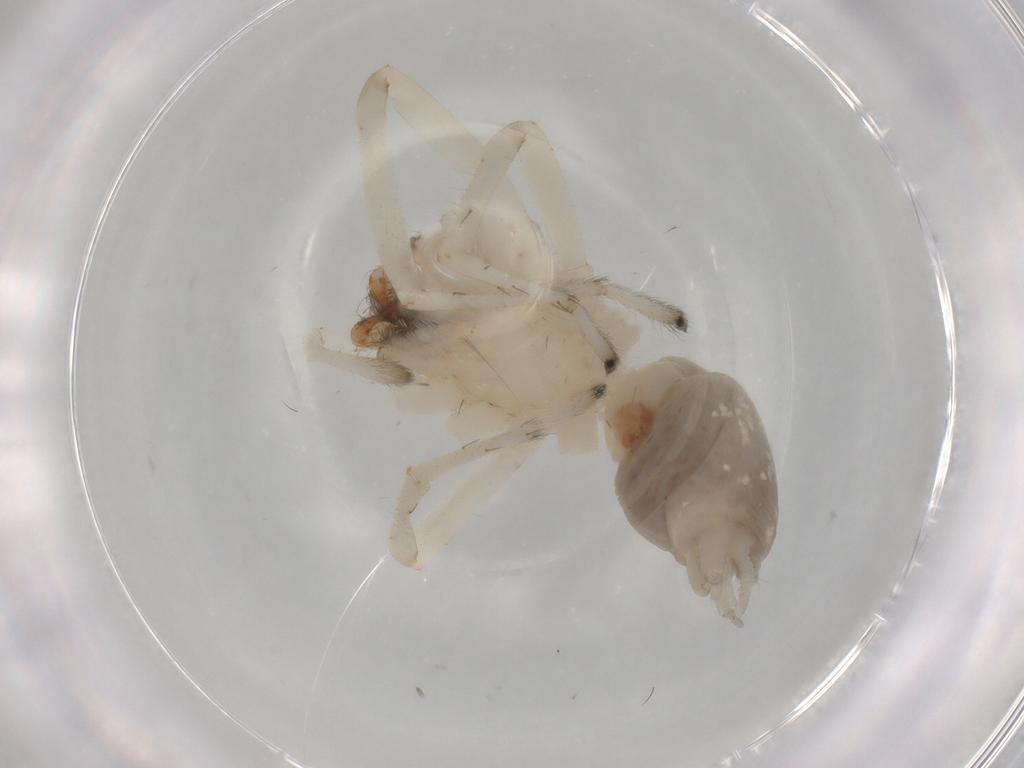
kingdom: Animalia
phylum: Arthropoda
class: Arachnida
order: Araneae
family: Cheiracanthiidae
